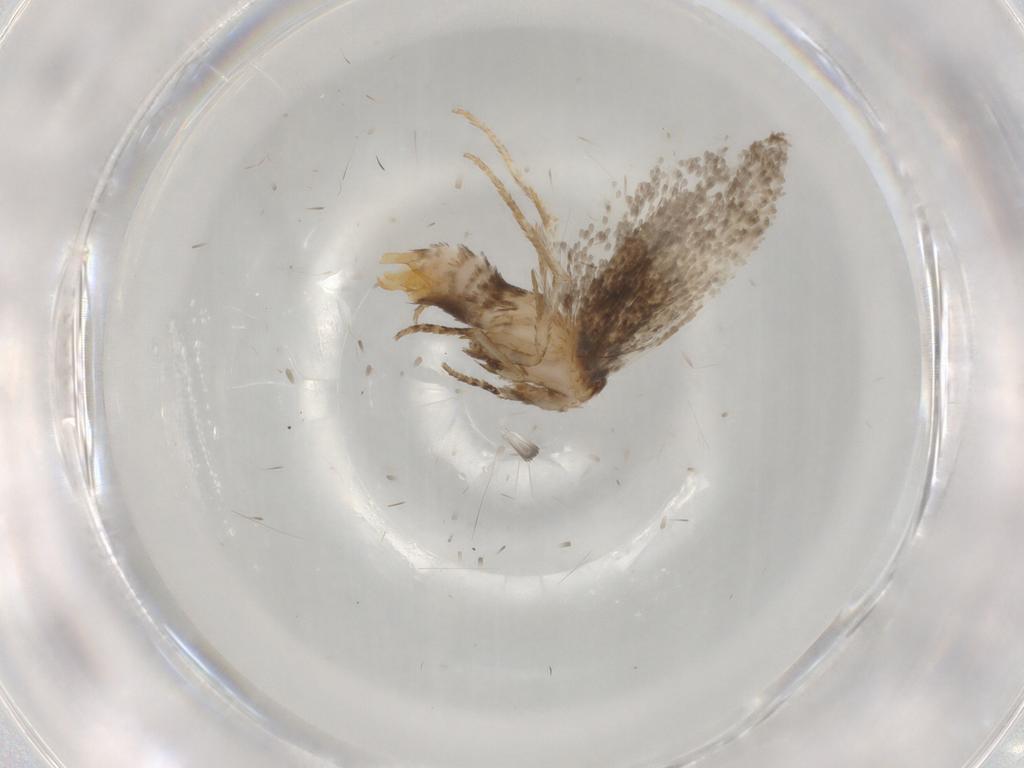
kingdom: Animalia
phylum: Arthropoda
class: Insecta
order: Lepidoptera
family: Tineidae
